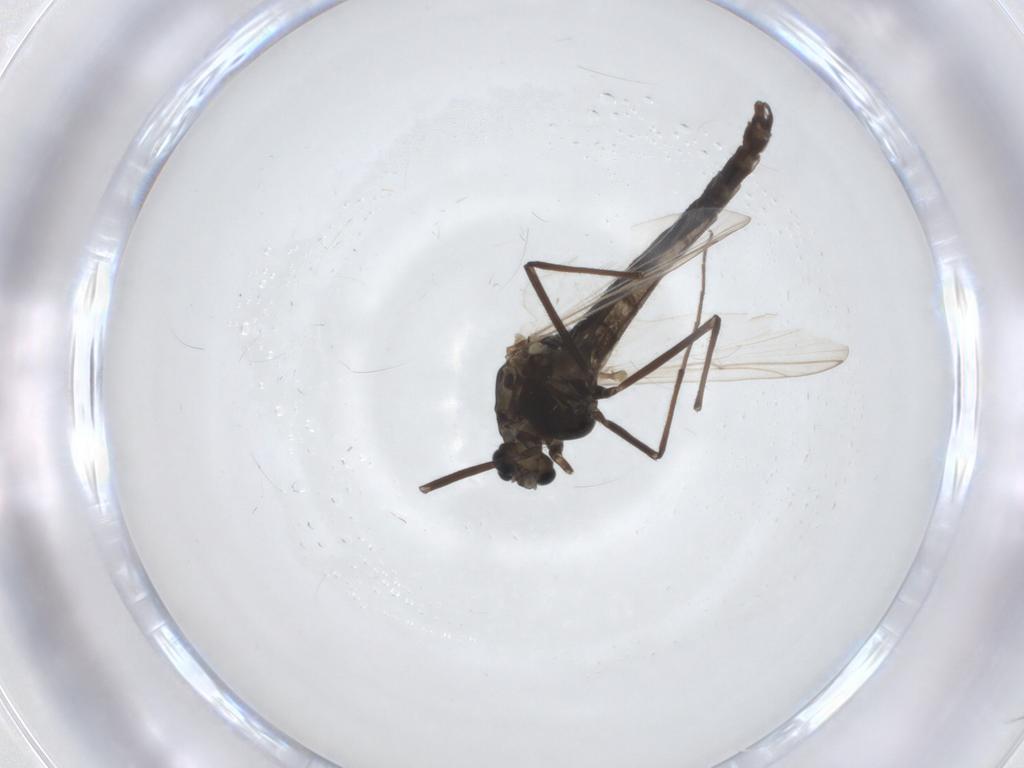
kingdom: Animalia
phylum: Arthropoda
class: Insecta
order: Diptera
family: Chironomidae
